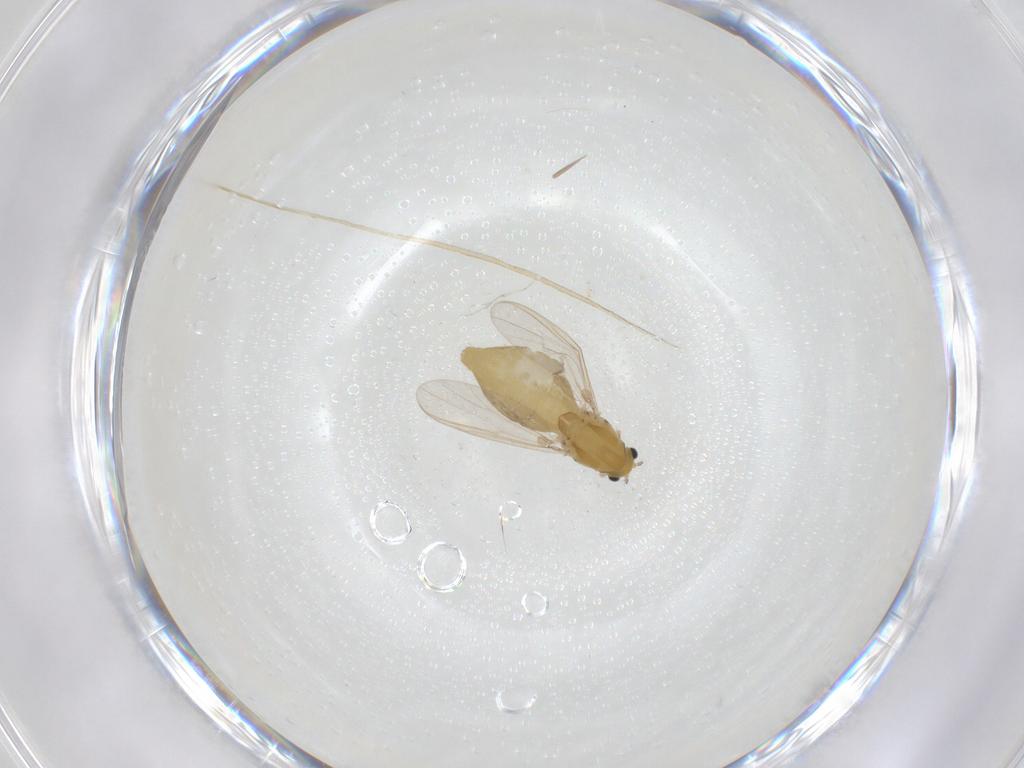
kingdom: Animalia
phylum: Arthropoda
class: Insecta
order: Diptera
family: Chironomidae
